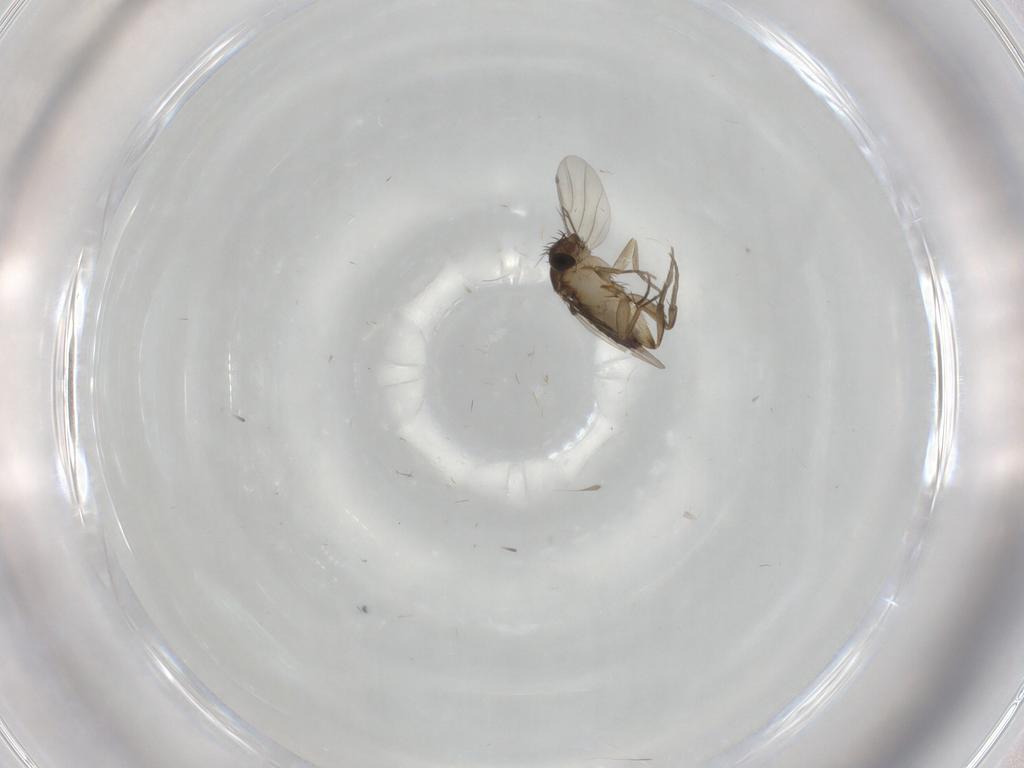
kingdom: Animalia
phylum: Arthropoda
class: Insecta
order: Diptera
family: Phoridae
